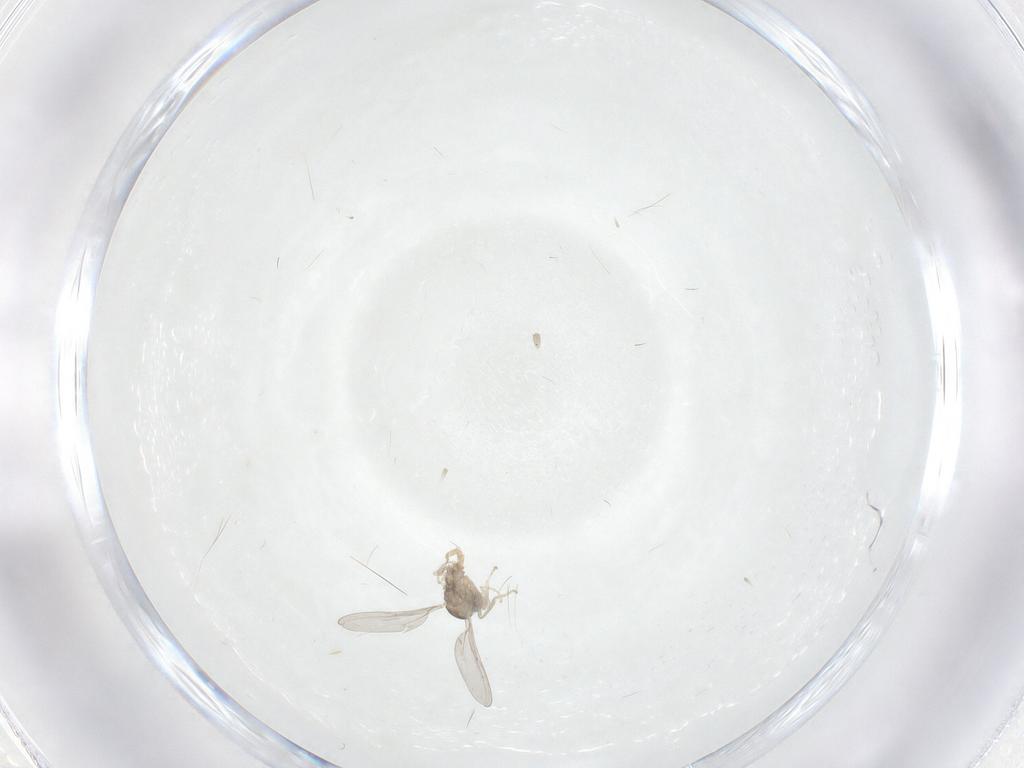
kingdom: Animalia
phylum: Arthropoda
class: Insecta
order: Diptera
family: Cecidomyiidae
